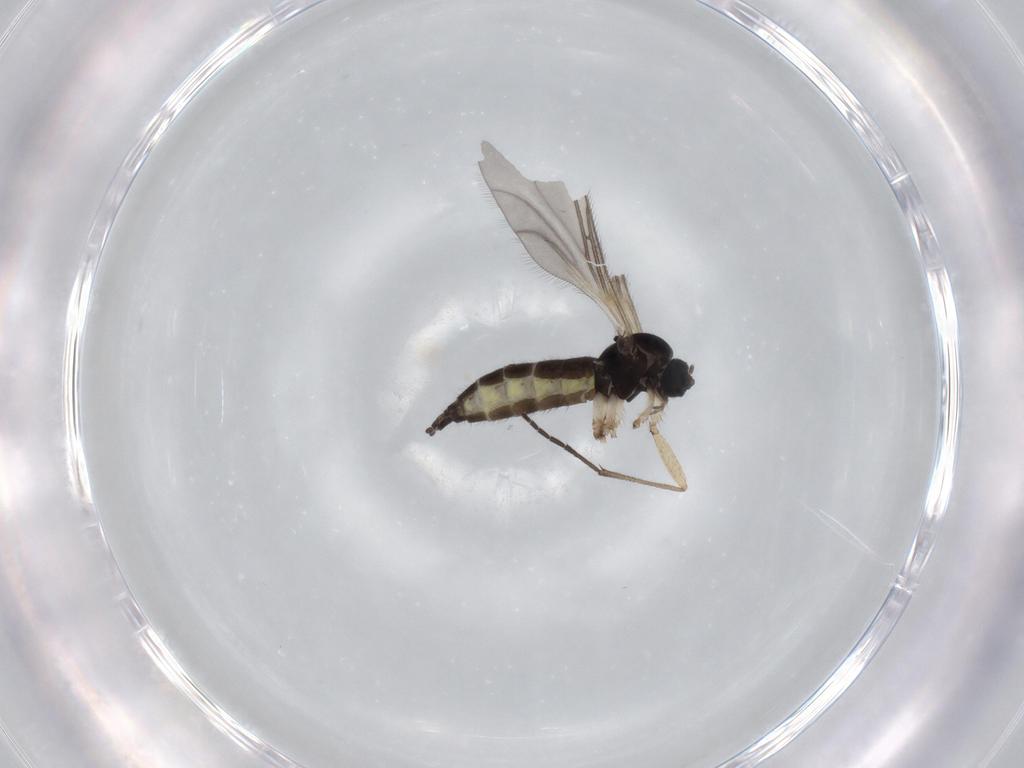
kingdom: Animalia
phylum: Arthropoda
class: Insecta
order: Diptera
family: Sciaridae
